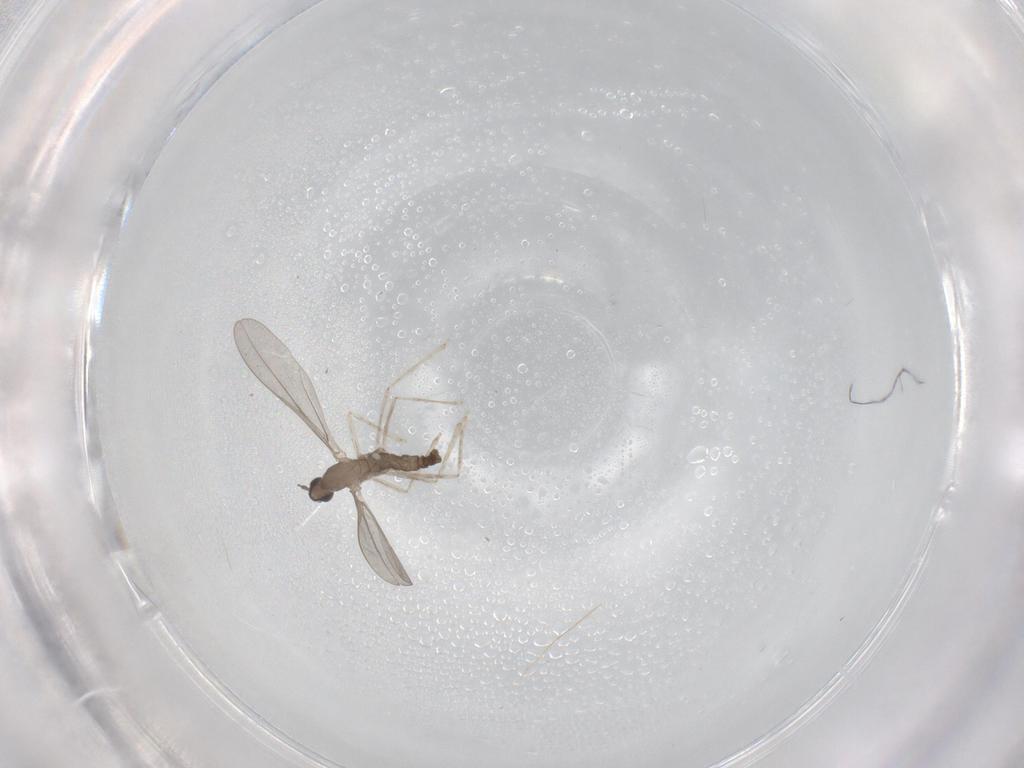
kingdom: Animalia
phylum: Arthropoda
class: Insecta
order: Diptera
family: Cecidomyiidae
